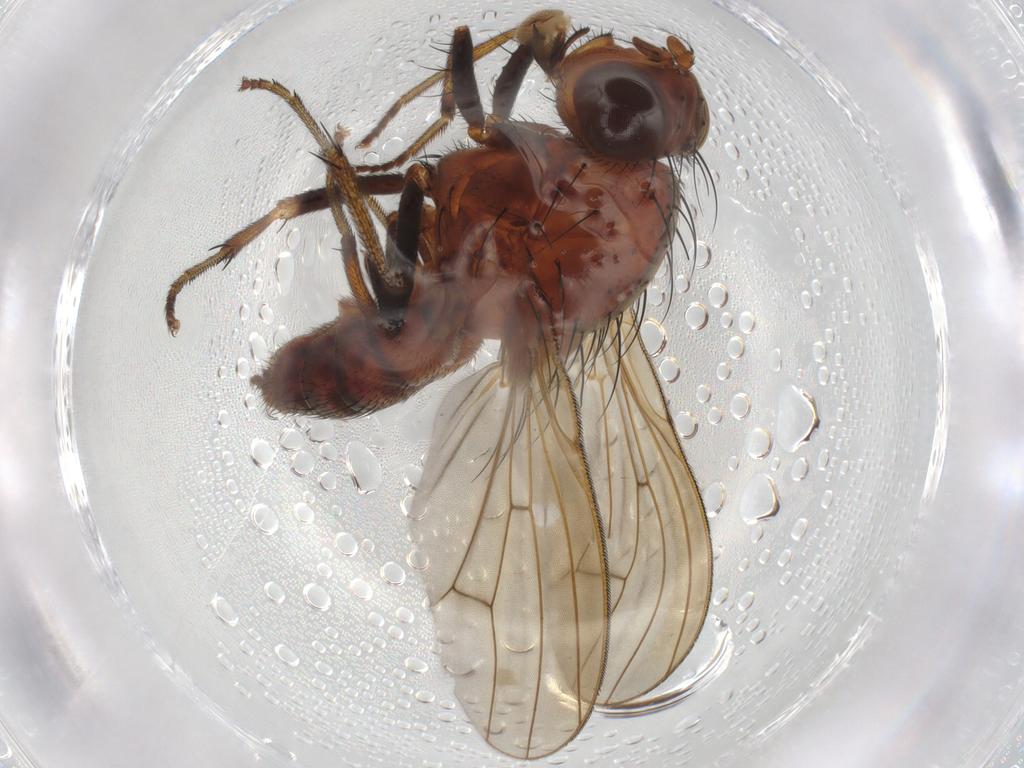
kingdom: Animalia
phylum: Arthropoda
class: Insecta
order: Diptera
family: Lauxaniidae
